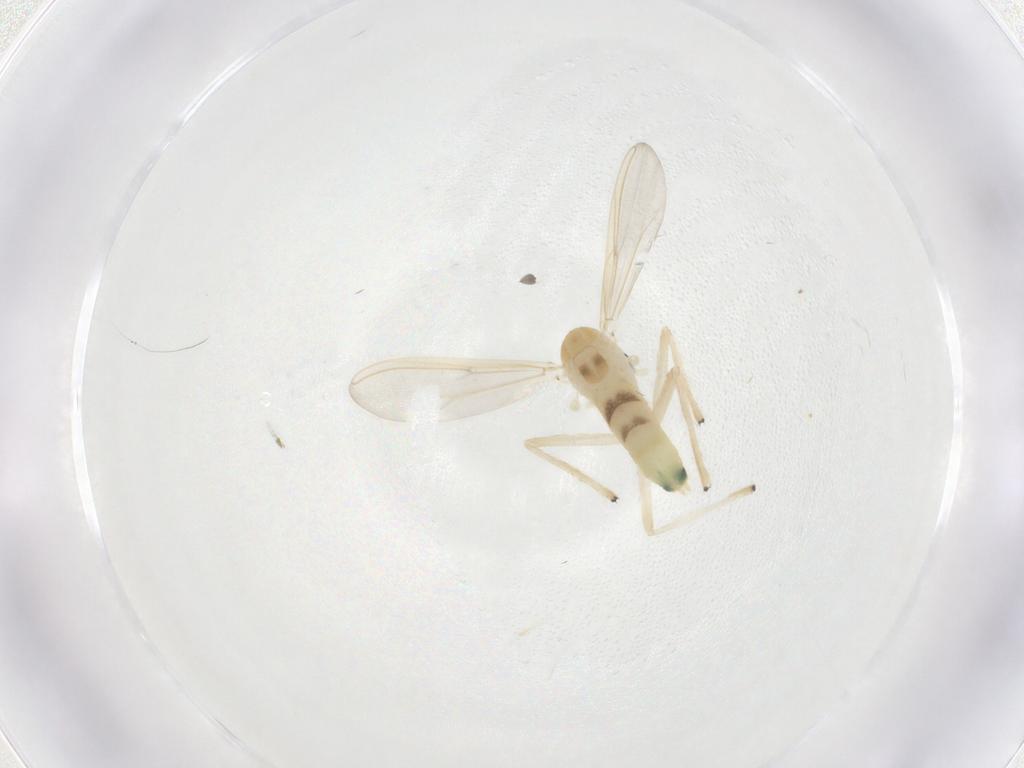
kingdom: Animalia
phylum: Arthropoda
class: Insecta
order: Diptera
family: Chironomidae
